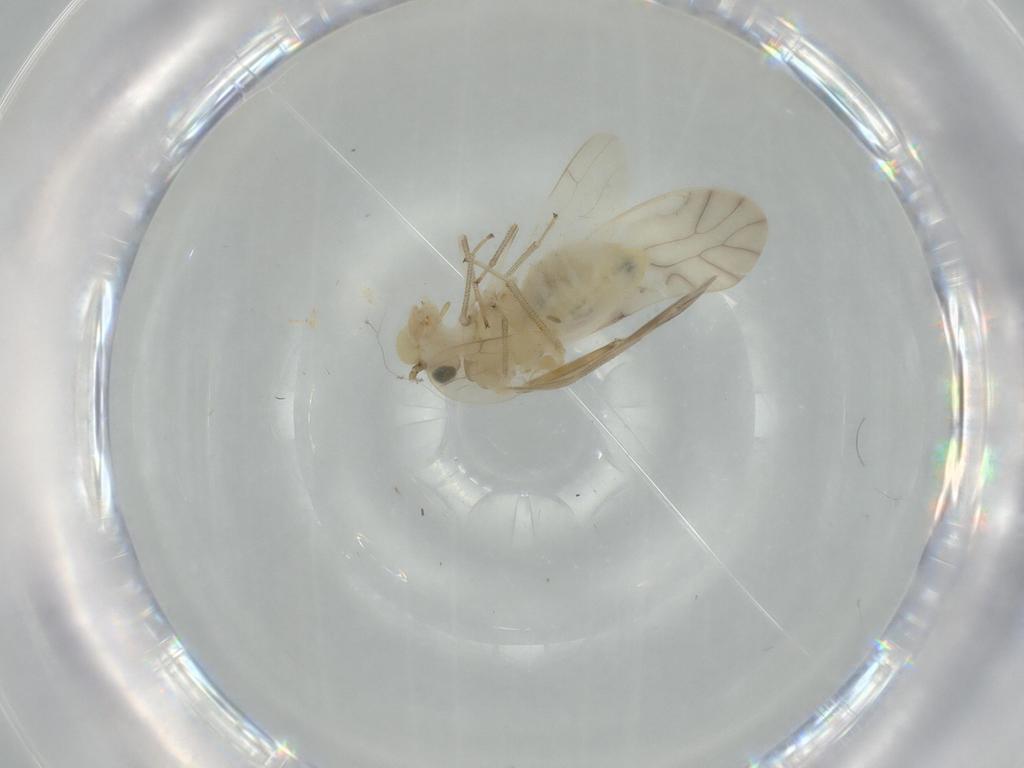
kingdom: Animalia
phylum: Arthropoda
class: Insecta
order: Psocodea
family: Caeciliusidae
